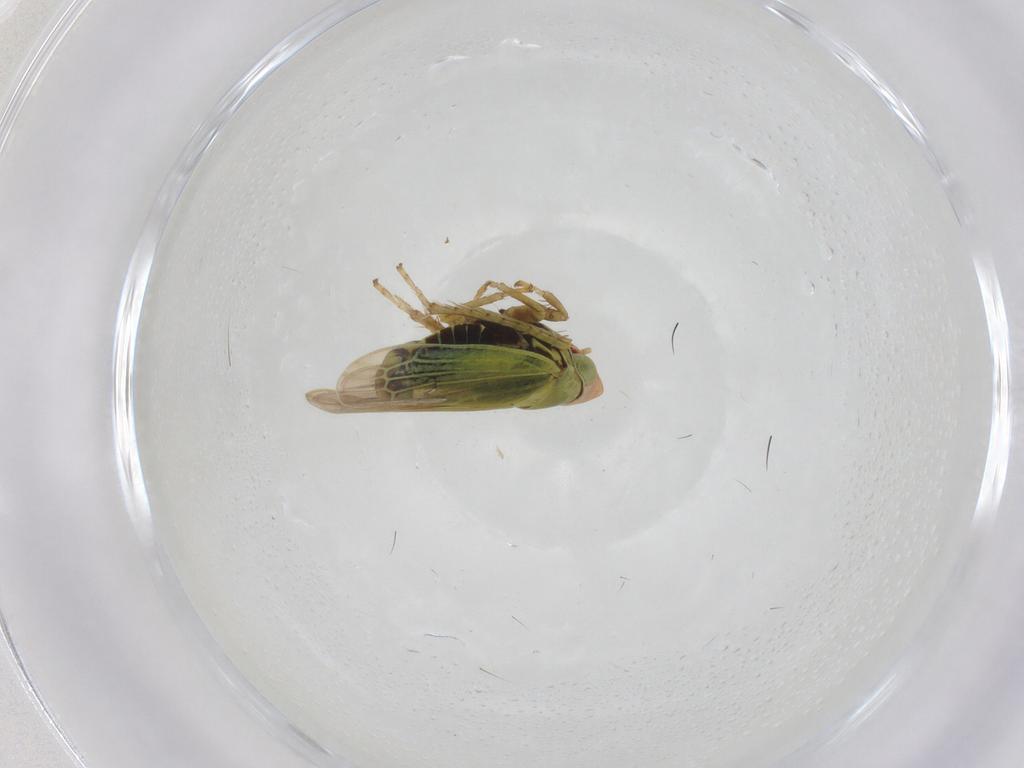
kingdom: Animalia
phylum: Arthropoda
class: Insecta
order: Hemiptera
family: Cicadellidae
